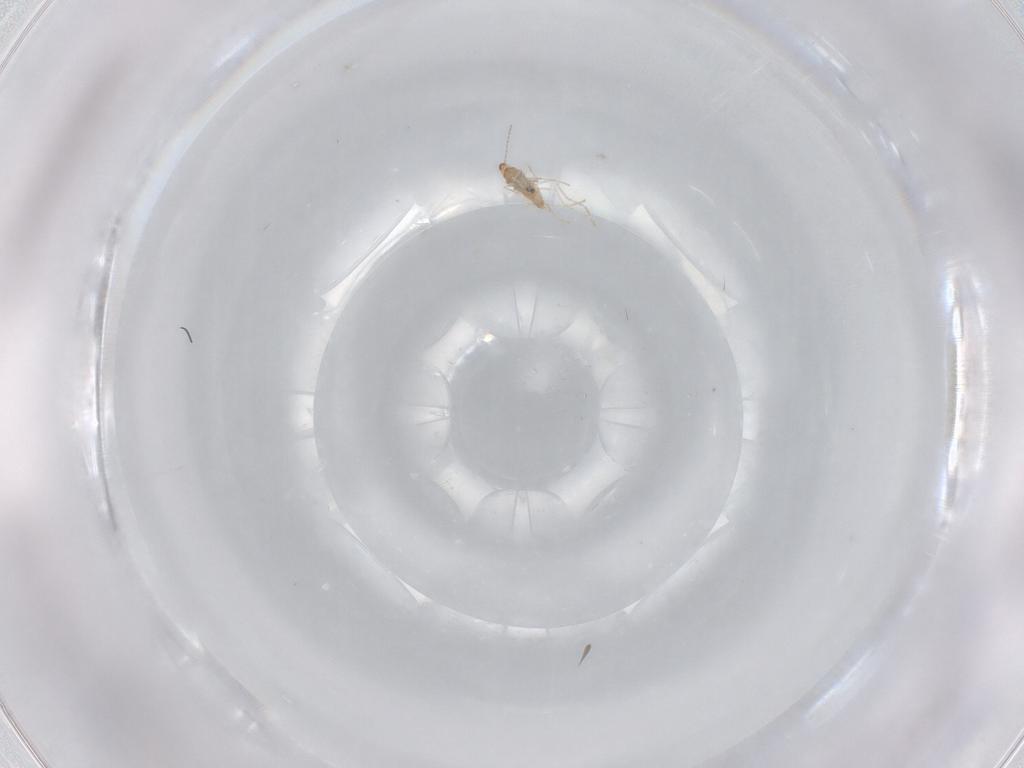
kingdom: Animalia
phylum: Arthropoda
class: Insecta
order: Diptera
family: Cecidomyiidae
